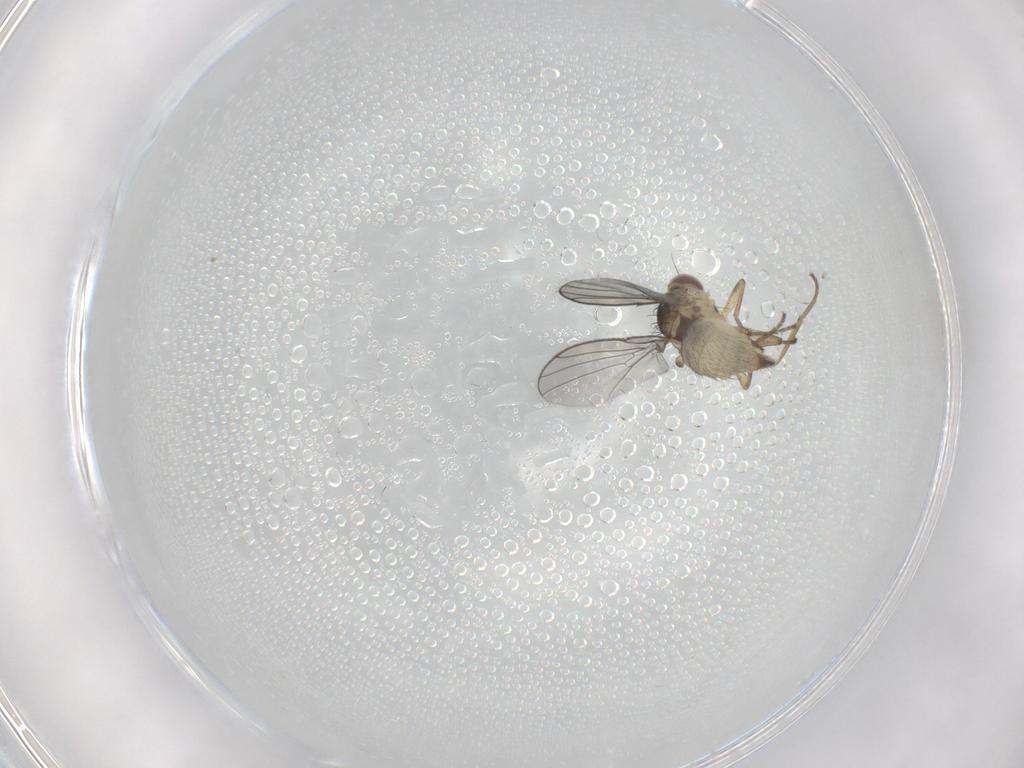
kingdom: Animalia
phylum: Arthropoda
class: Insecta
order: Diptera
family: Agromyzidae
